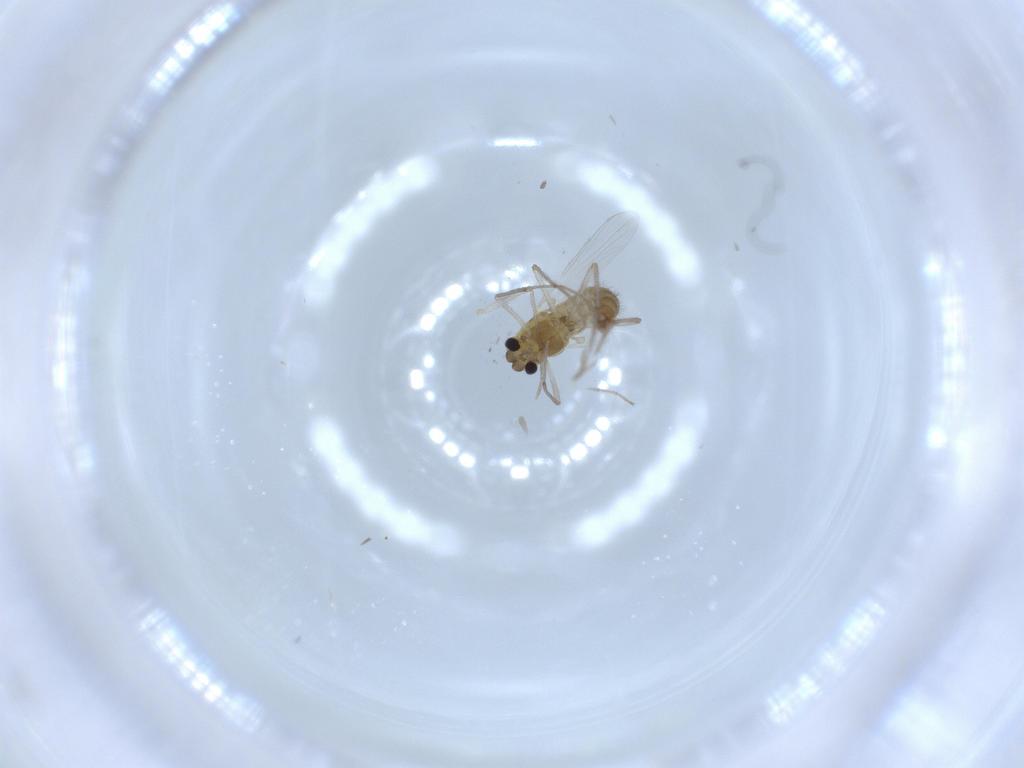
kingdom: Animalia
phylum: Arthropoda
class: Insecta
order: Diptera
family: Chironomidae
